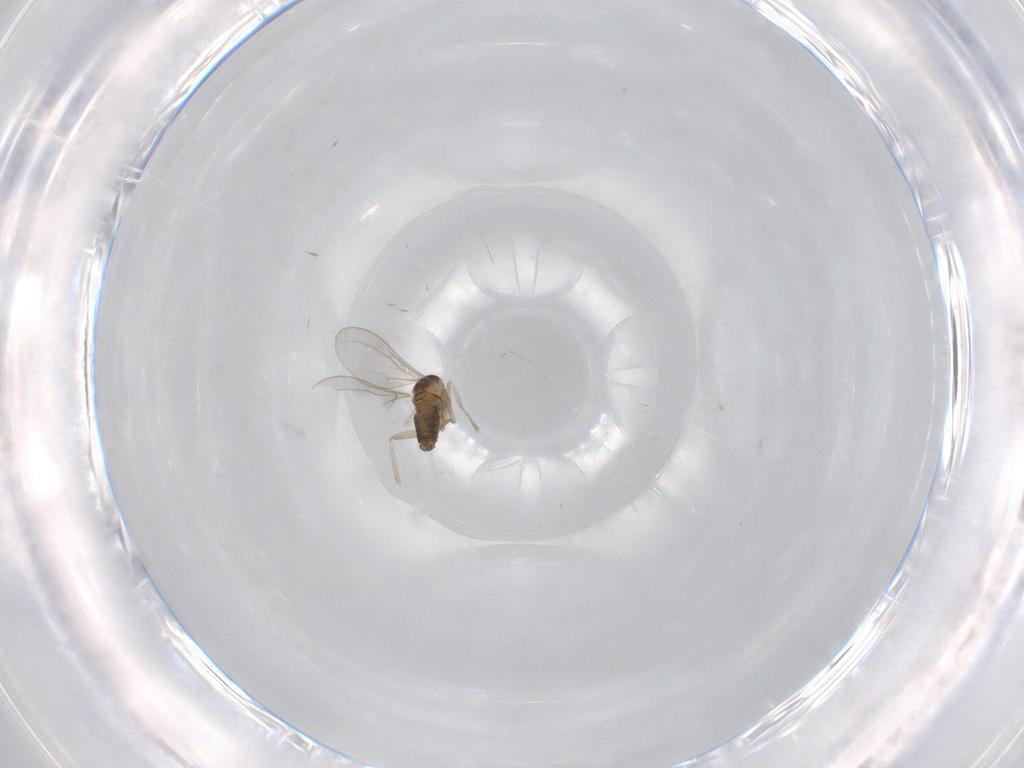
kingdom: Animalia
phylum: Arthropoda
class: Insecta
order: Diptera
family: Cecidomyiidae
